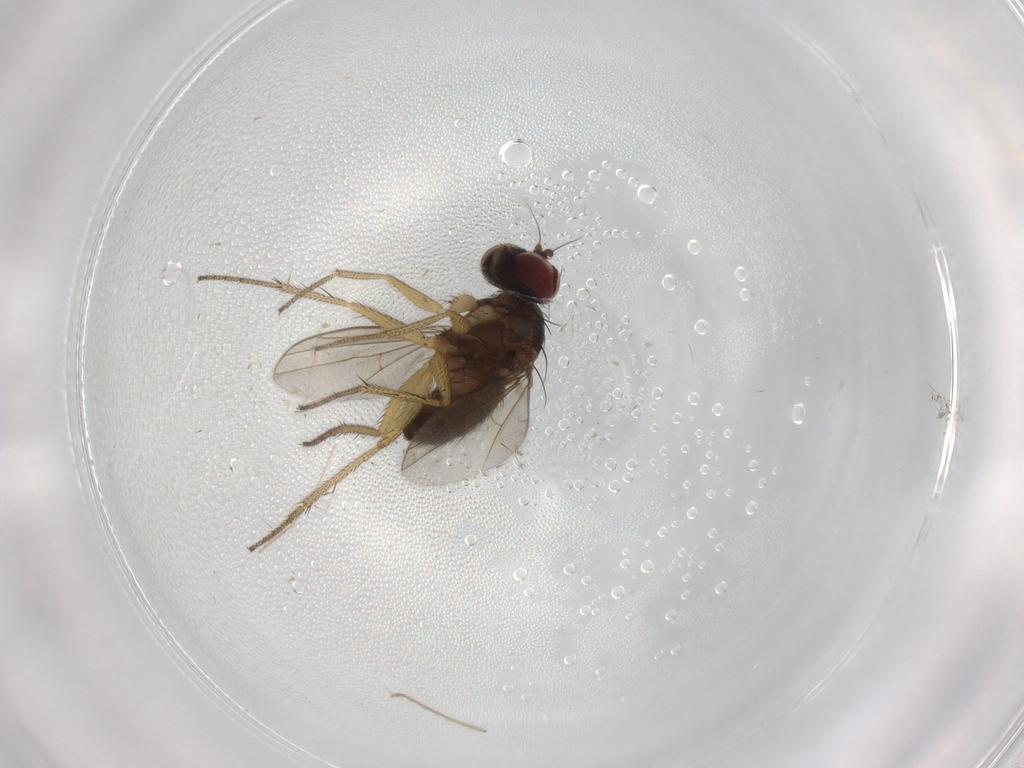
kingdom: Animalia
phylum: Arthropoda
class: Insecta
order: Diptera
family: Chironomidae
